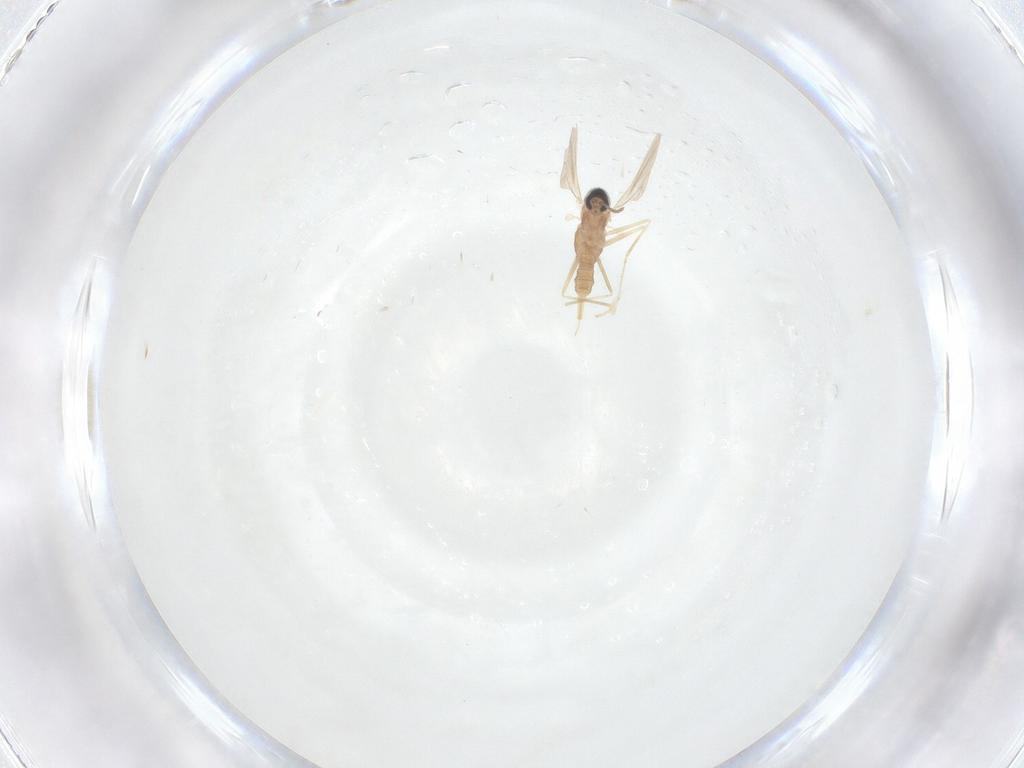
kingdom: Animalia
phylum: Arthropoda
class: Insecta
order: Diptera
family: Cecidomyiidae
